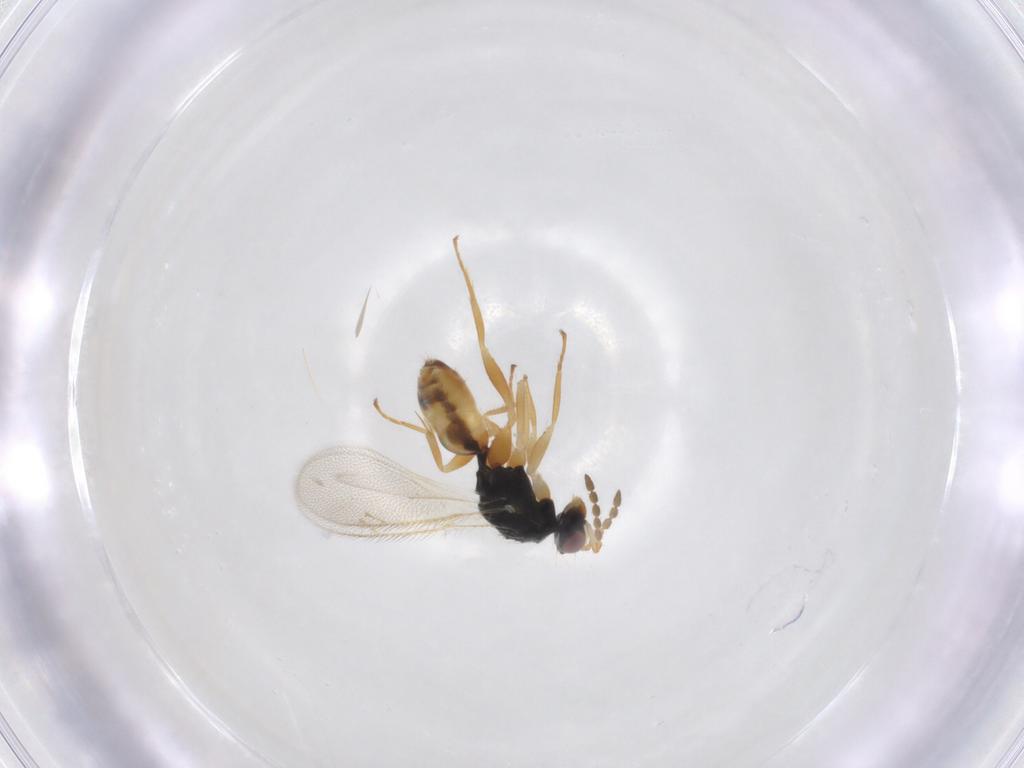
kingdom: Animalia
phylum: Arthropoda
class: Insecta
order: Hymenoptera
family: Eulophidae
